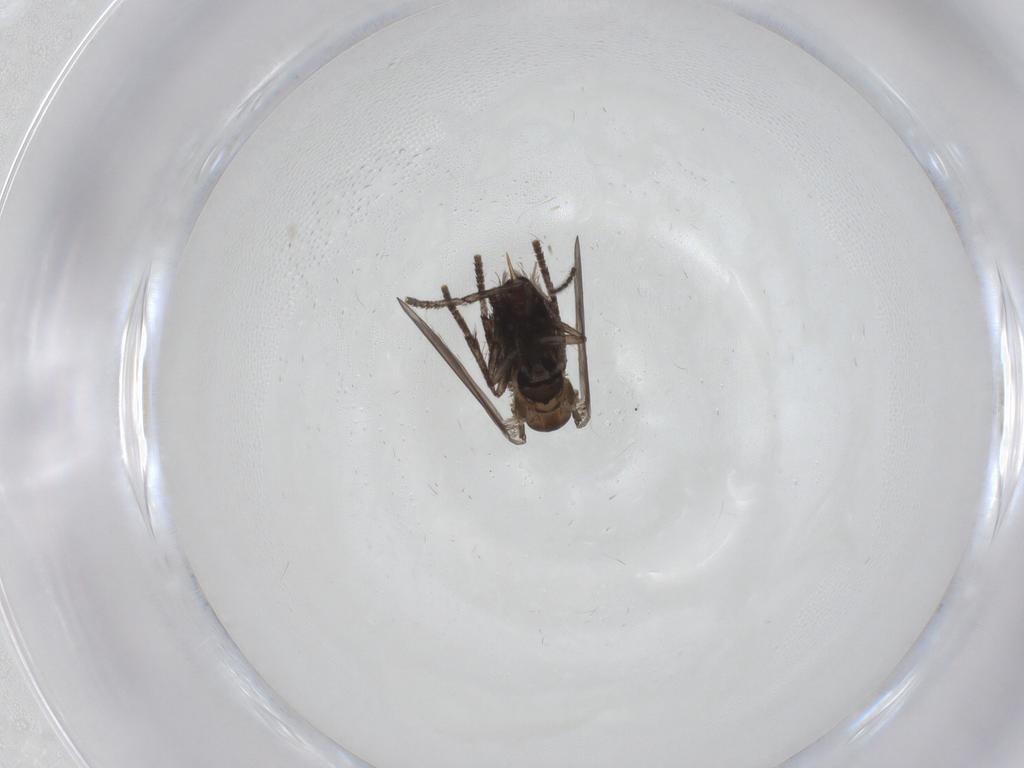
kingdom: Animalia
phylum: Arthropoda
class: Insecta
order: Diptera
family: Psychodidae
